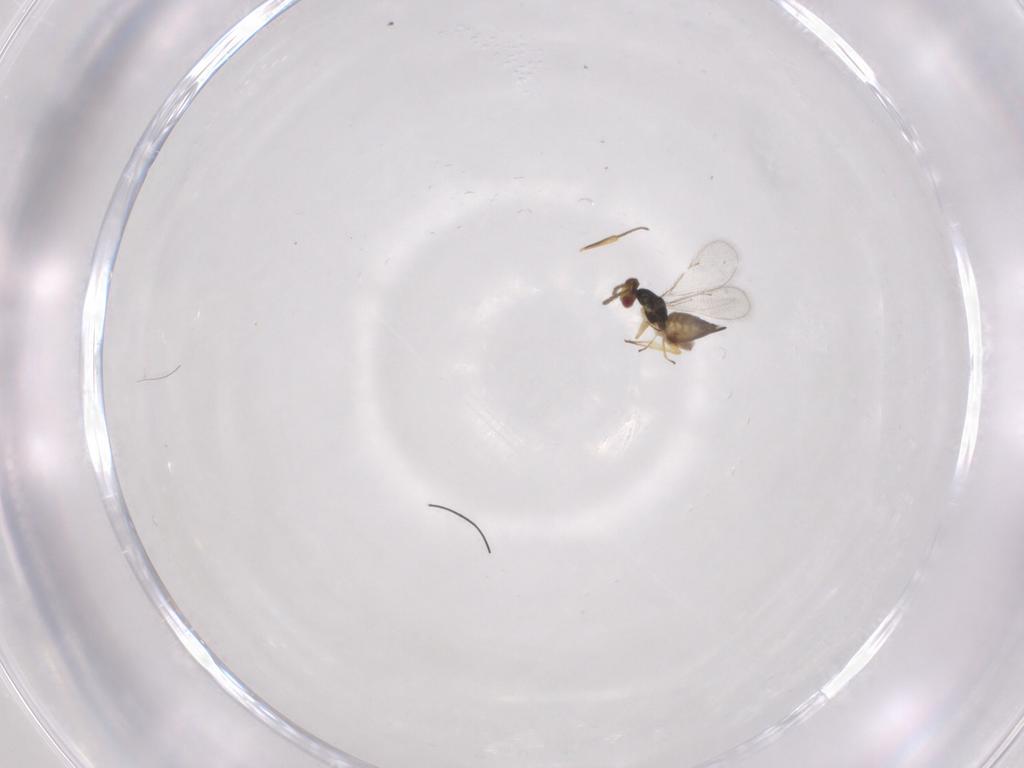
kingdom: Animalia
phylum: Arthropoda
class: Insecta
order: Hymenoptera
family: Eulophidae
